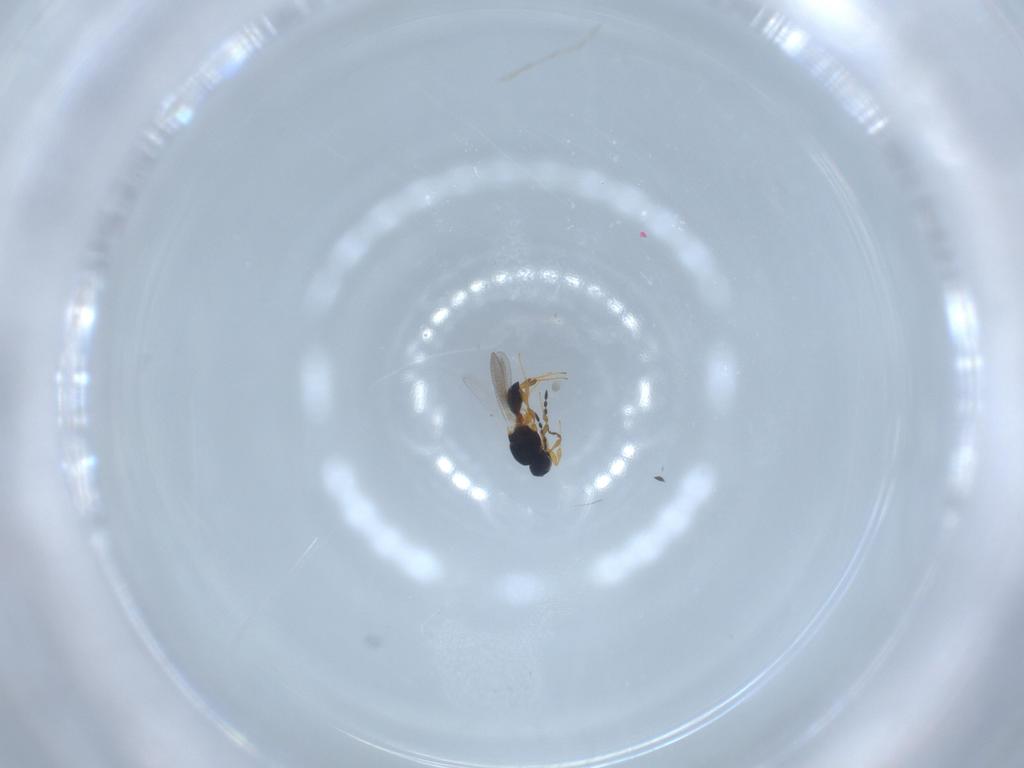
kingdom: Animalia
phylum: Arthropoda
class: Insecta
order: Hymenoptera
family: Platygastridae
